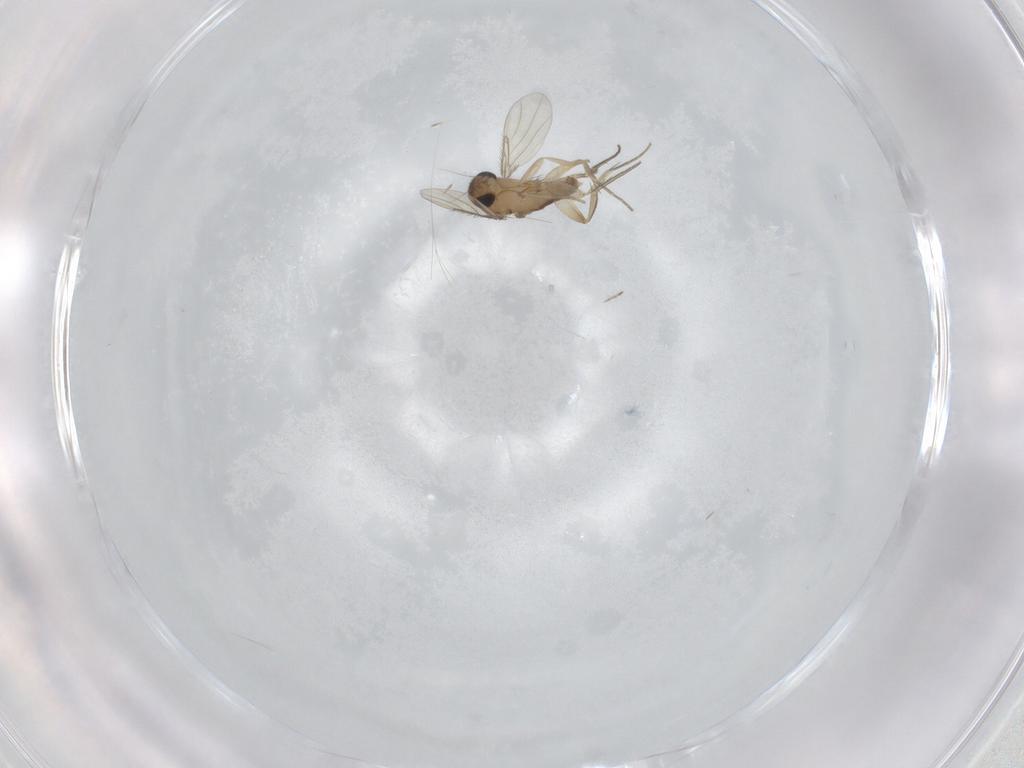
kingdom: Animalia
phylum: Arthropoda
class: Insecta
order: Diptera
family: Phoridae
